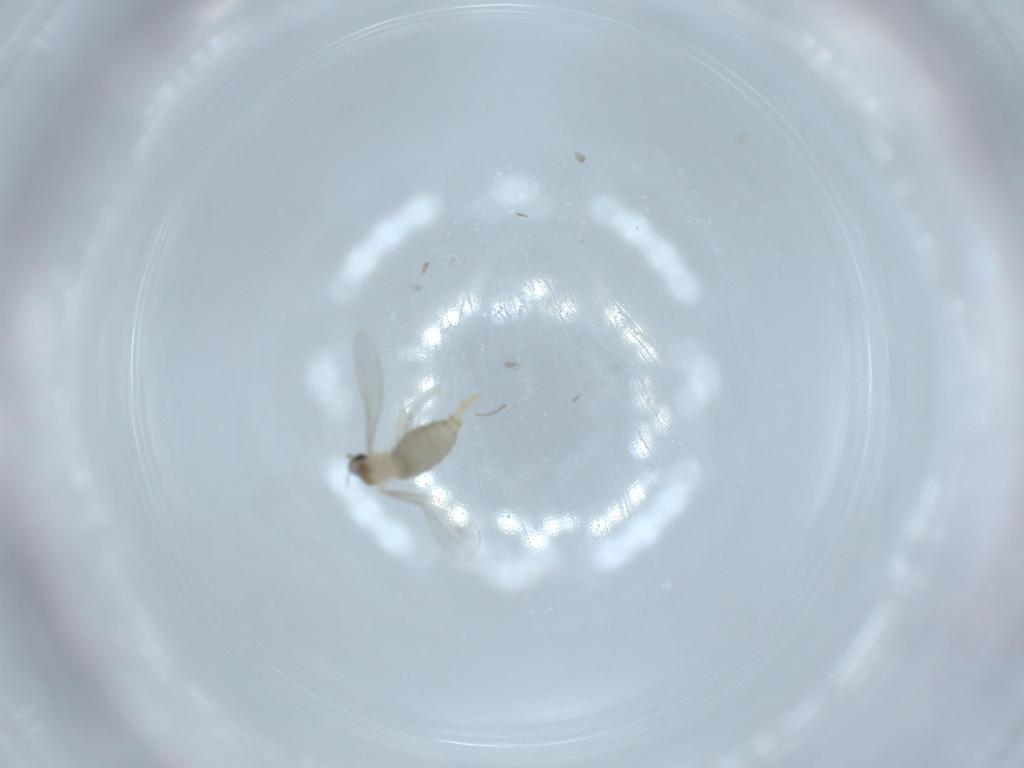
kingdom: Animalia
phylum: Arthropoda
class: Insecta
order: Diptera
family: Chironomidae
